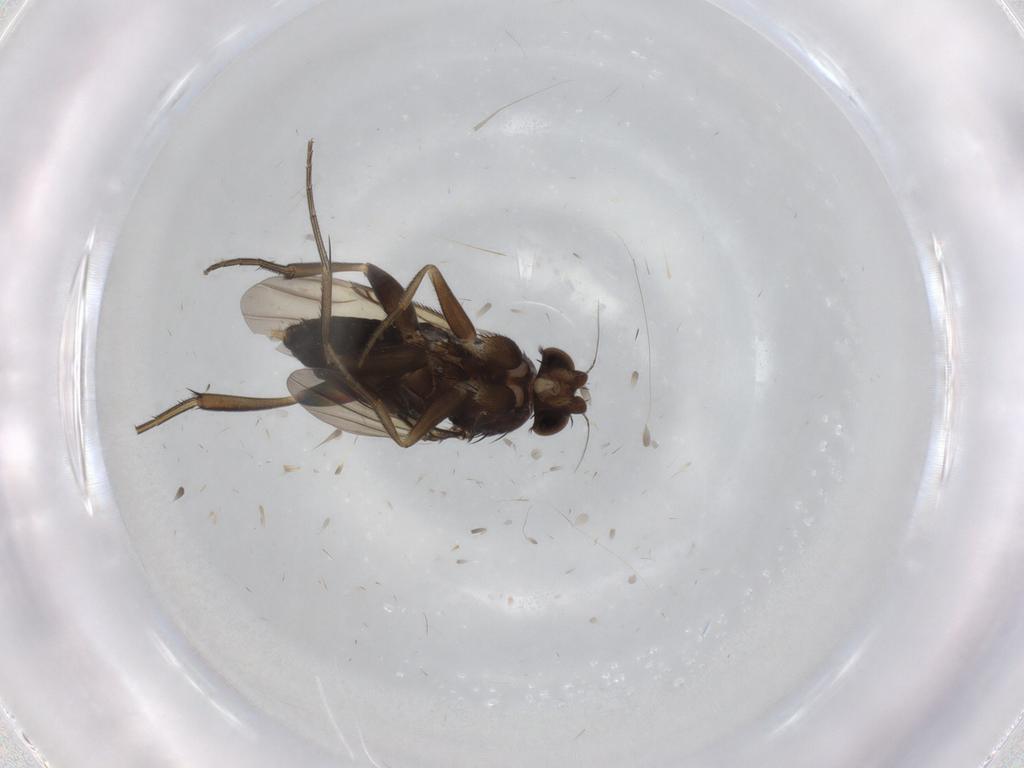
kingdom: Animalia
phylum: Arthropoda
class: Insecta
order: Diptera
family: Phoridae
